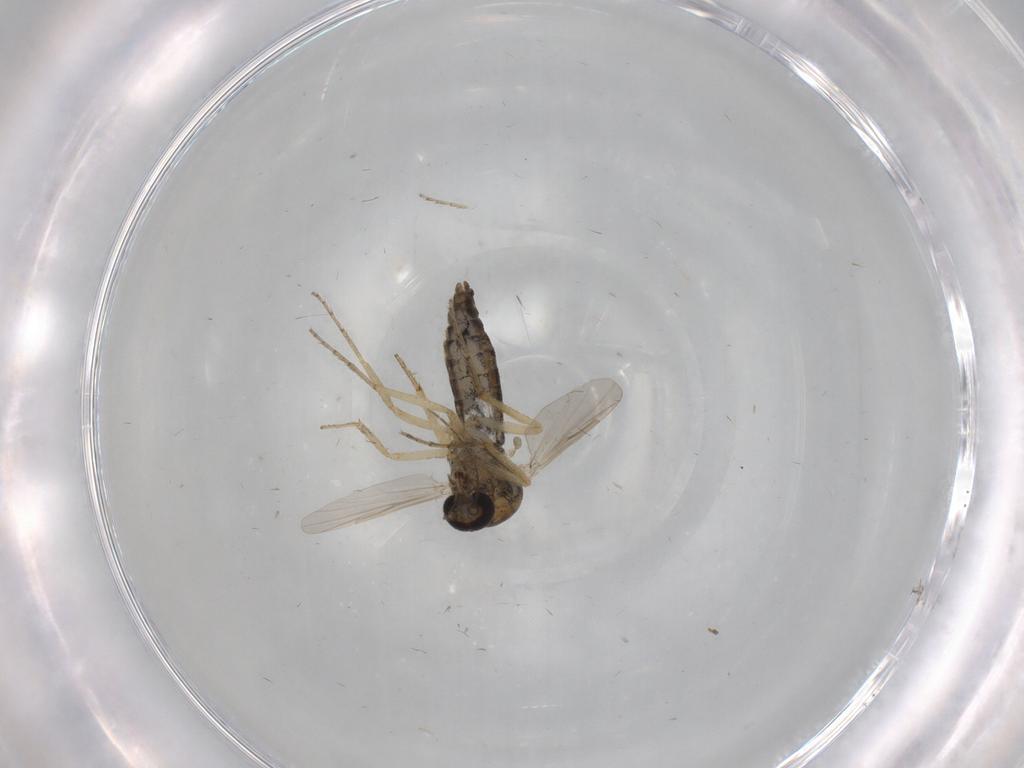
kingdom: Animalia
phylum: Arthropoda
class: Insecta
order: Diptera
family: Ceratopogonidae
